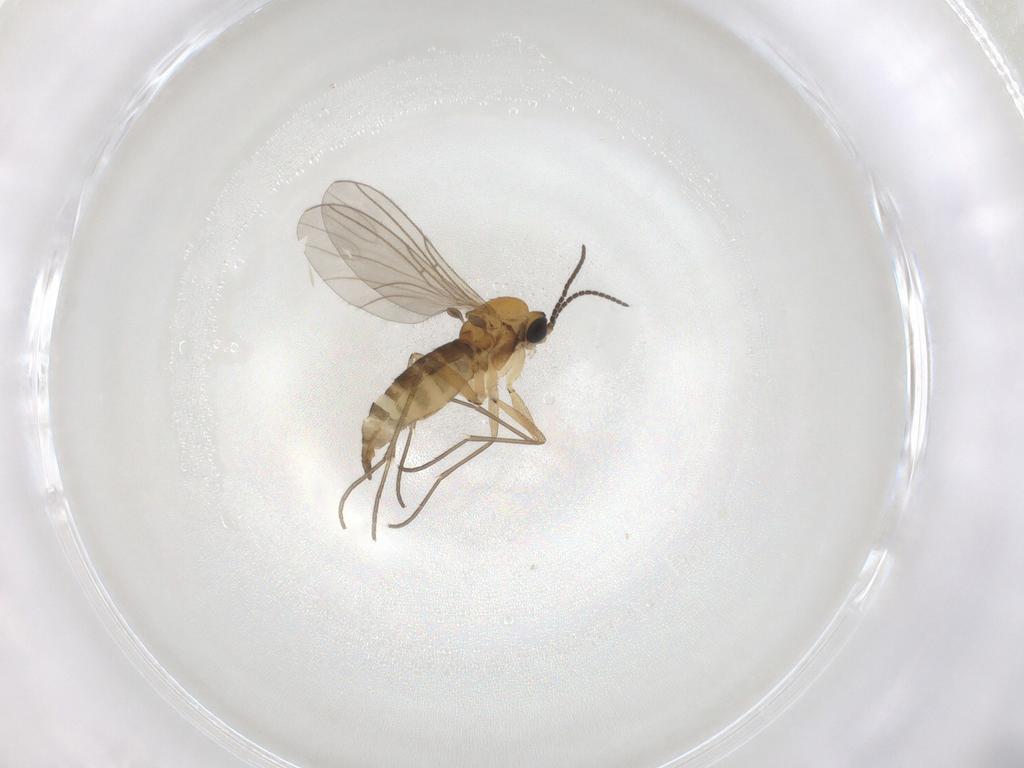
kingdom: Animalia
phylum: Arthropoda
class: Insecta
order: Diptera
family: Sciaridae
